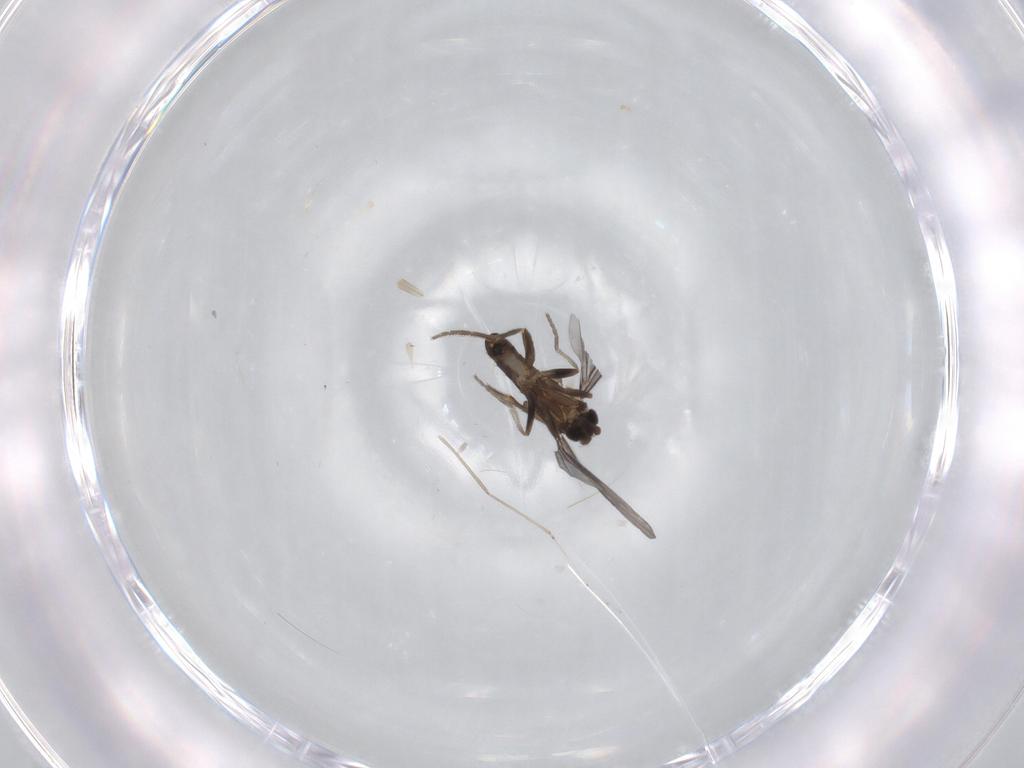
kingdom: Animalia
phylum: Arthropoda
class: Insecta
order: Diptera
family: Phoridae
